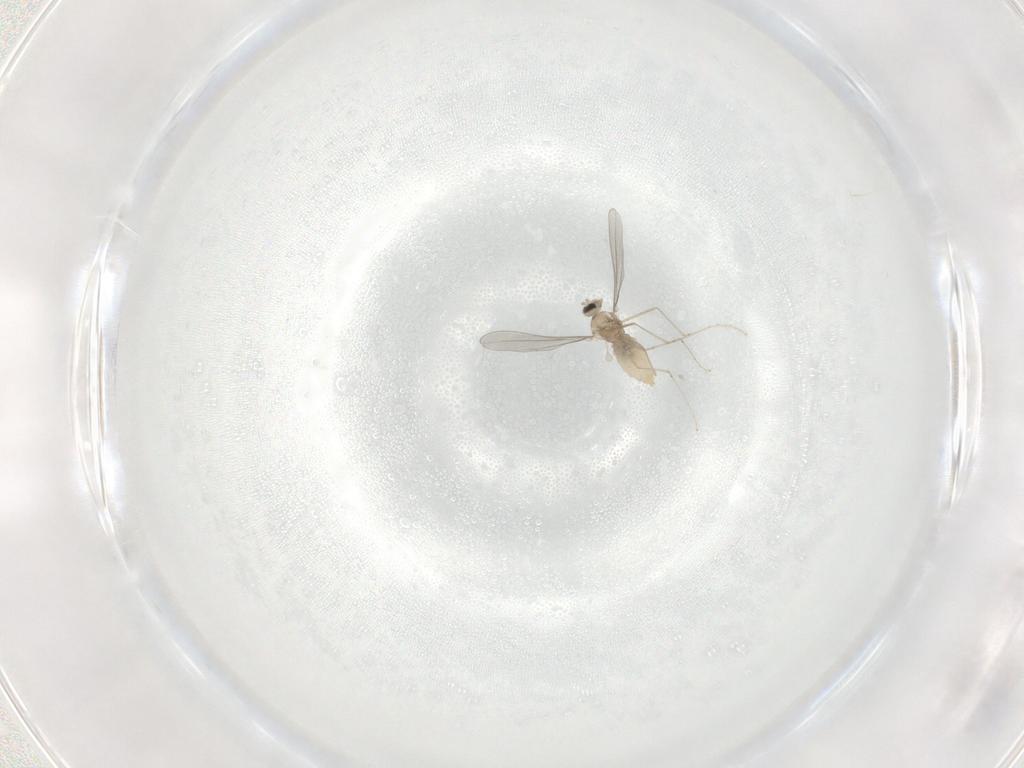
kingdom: Animalia
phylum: Arthropoda
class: Insecta
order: Diptera
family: Cecidomyiidae
